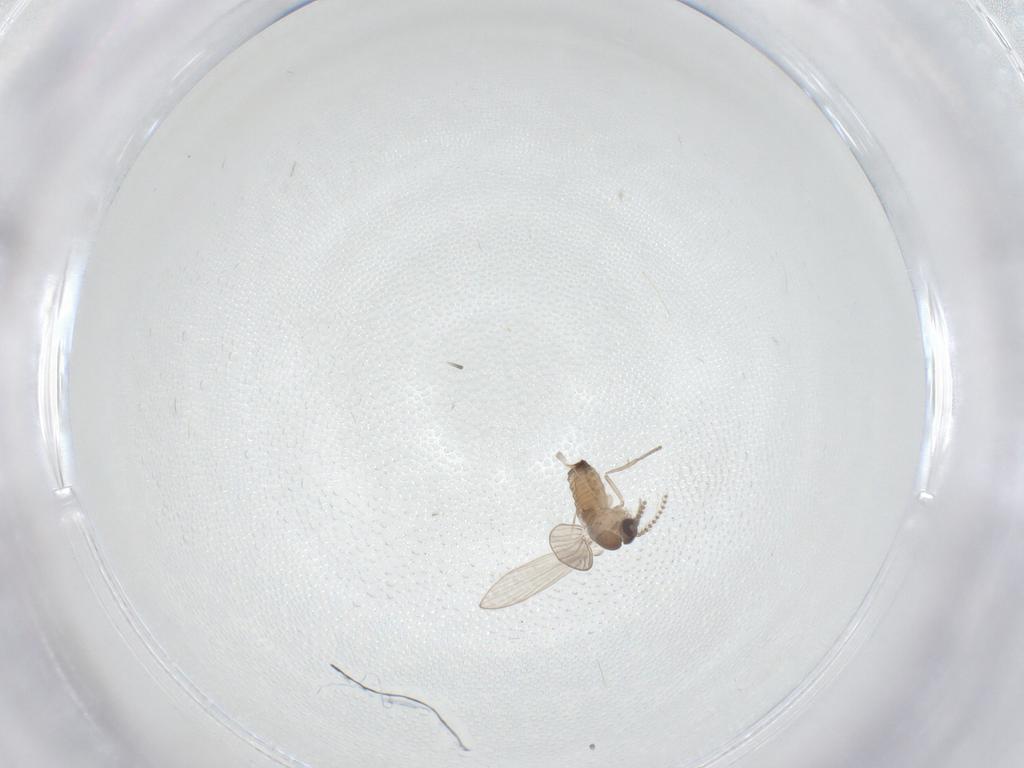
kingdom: Animalia
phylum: Arthropoda
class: Insecta
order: Diptera
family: Psychodidae
